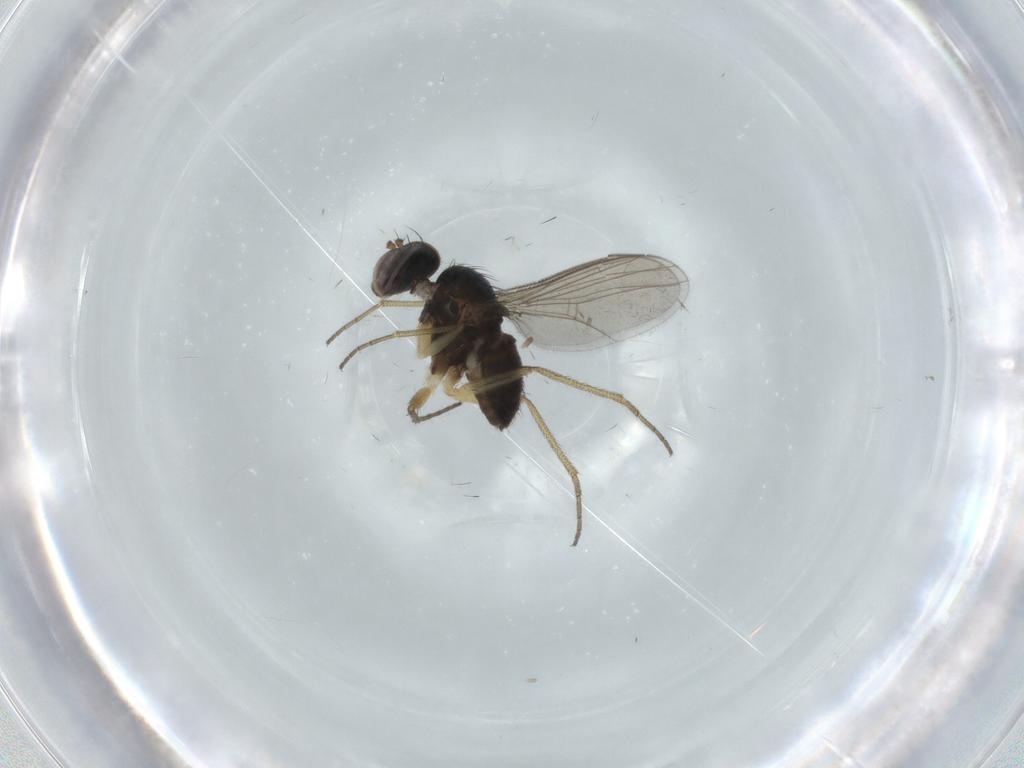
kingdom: Animalia
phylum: Arthropoda
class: Insecta
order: Diptera
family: Dolichopodidae
